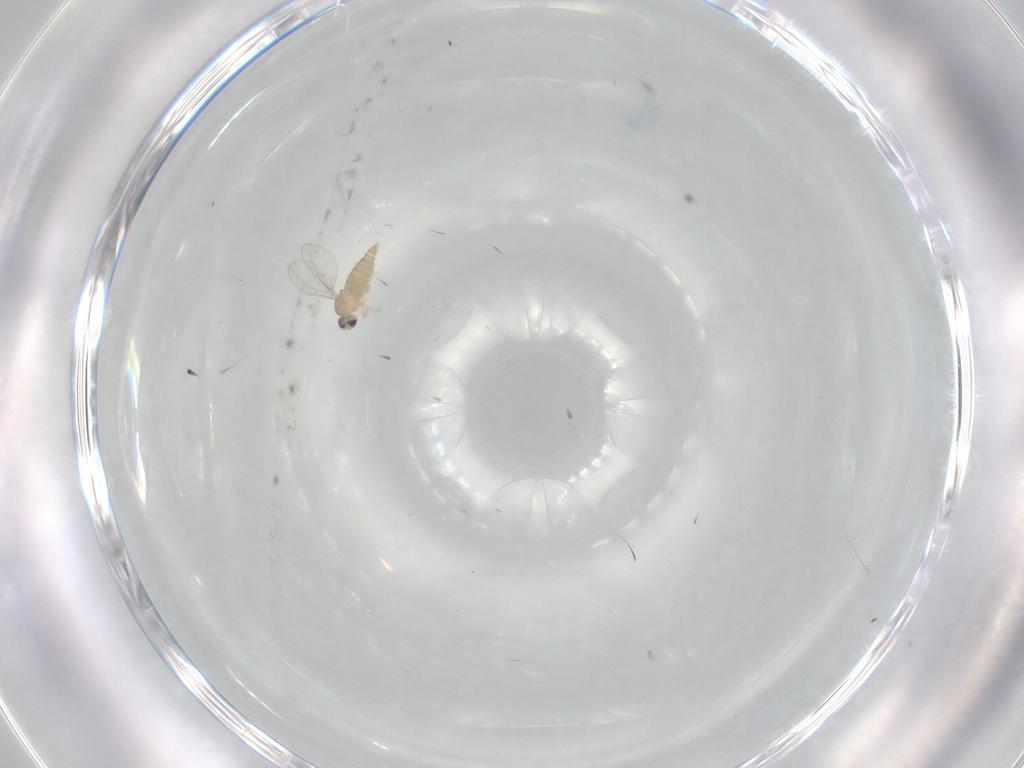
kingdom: Animalia
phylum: Arthropoda
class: Insecta
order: Diptera
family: Cecidomyiidae
